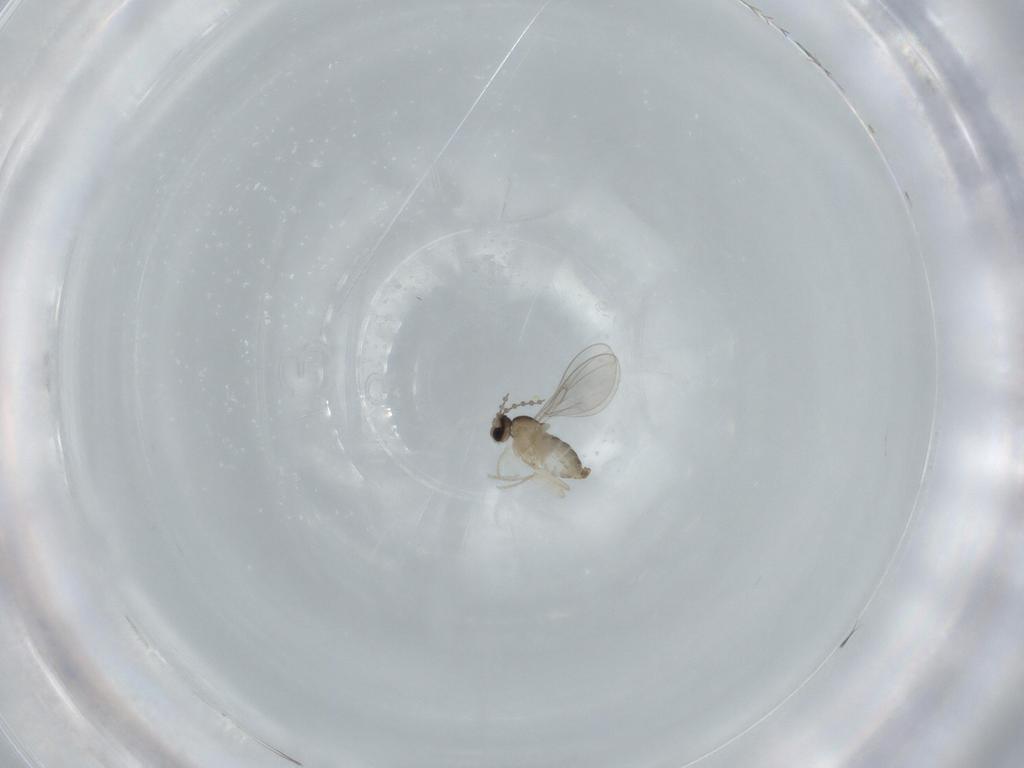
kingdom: Animalia
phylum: Arthropoda
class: Insecta
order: Diptera
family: Cecidomyiidae
